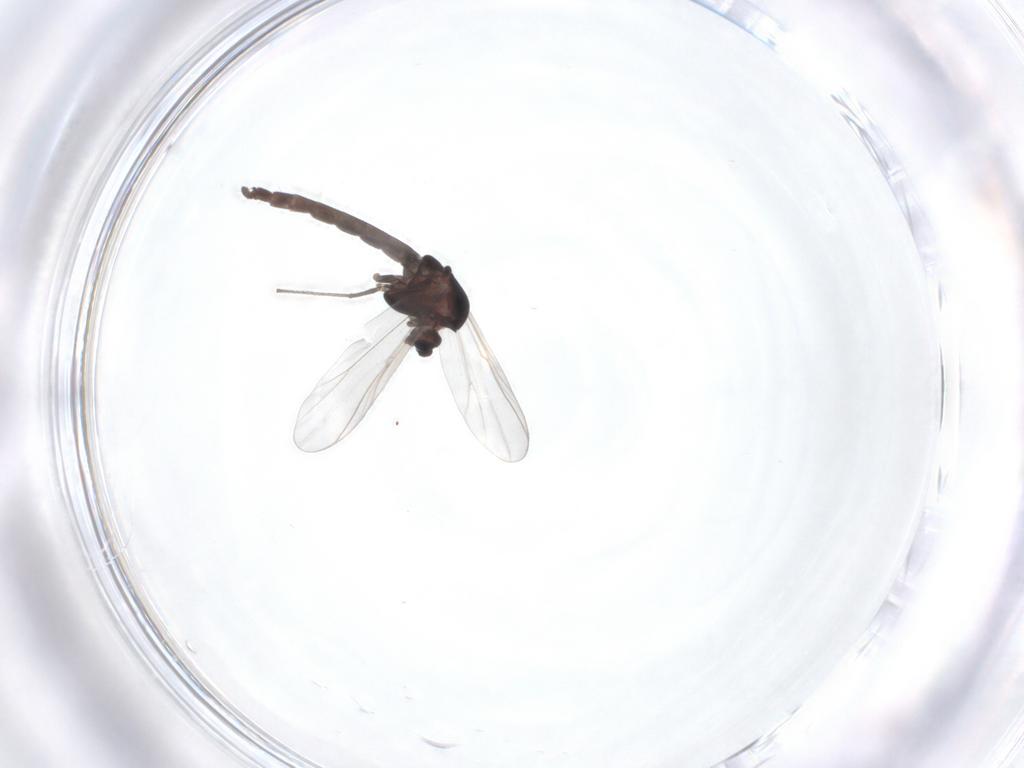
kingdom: Animalia
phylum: Arthropoda
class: Insecta
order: Diptera
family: Chironomidae
